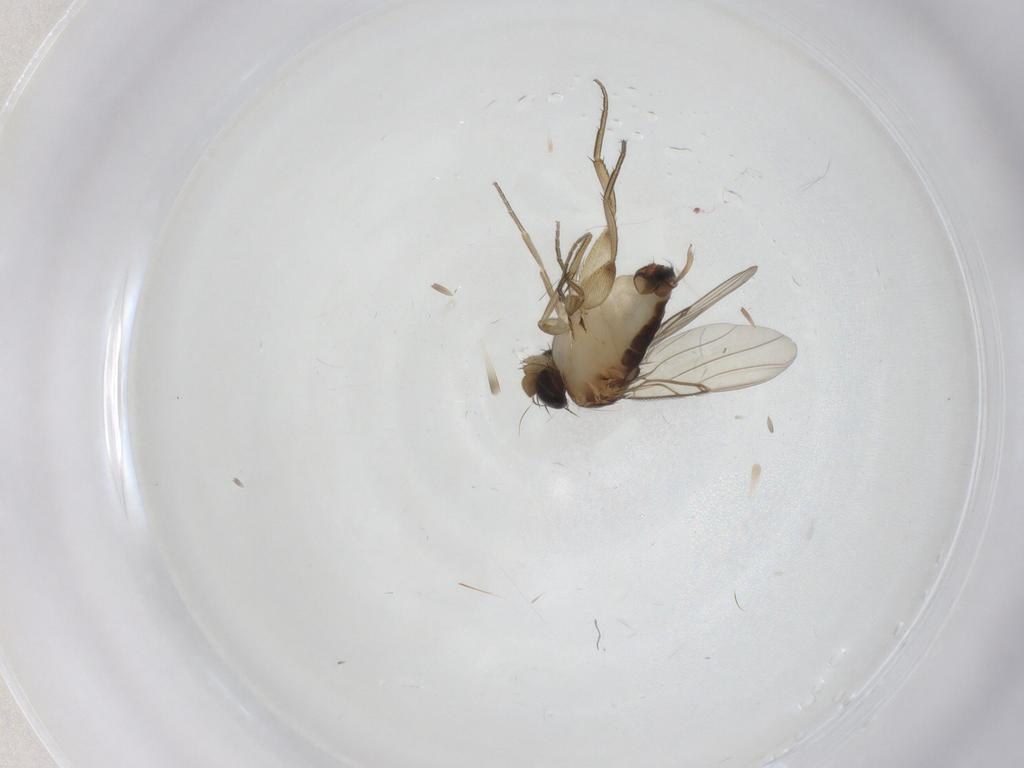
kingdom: Animalia
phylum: Arthropoda
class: Insecta
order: Diptera
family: Phoridae
